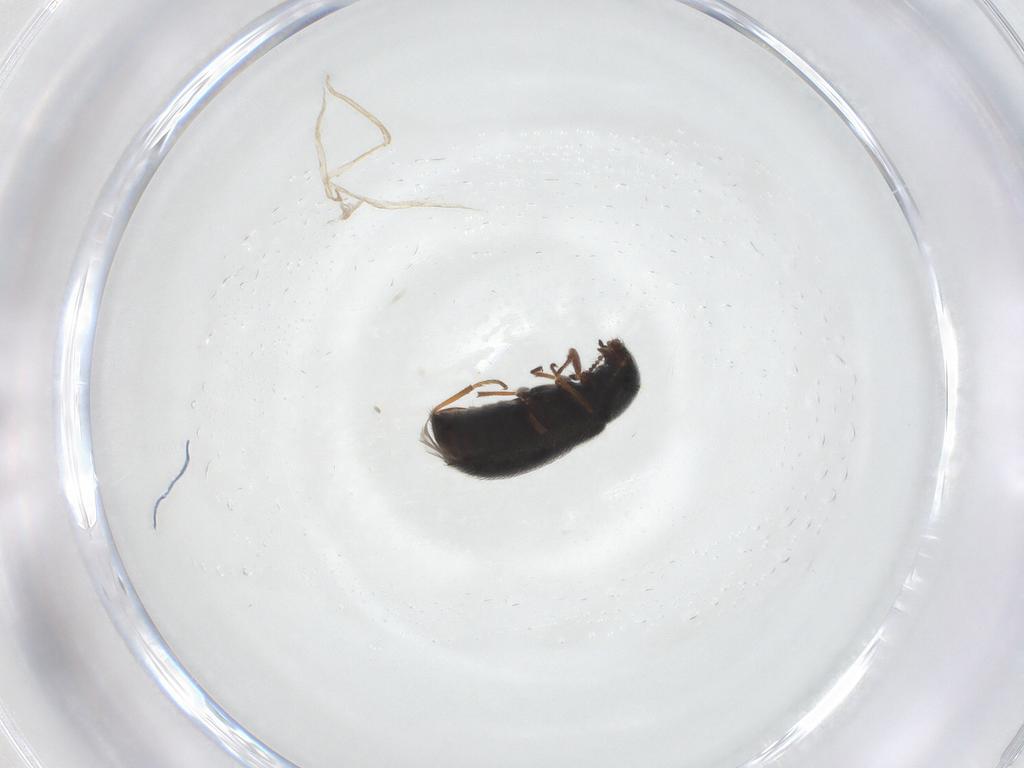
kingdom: Animalia
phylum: Arthropoda
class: Insecta
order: Coleoptera
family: Melyridae
